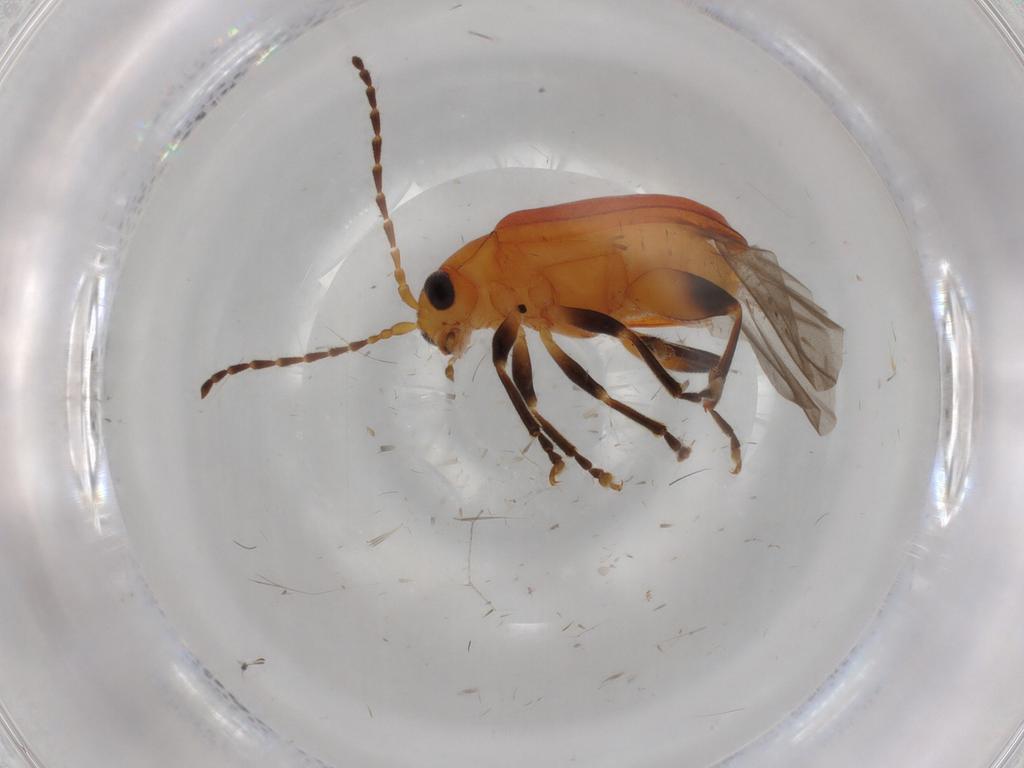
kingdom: Animalia
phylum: Arthropoda
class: Insecta
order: Coleoptera
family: Chrysomelidae
